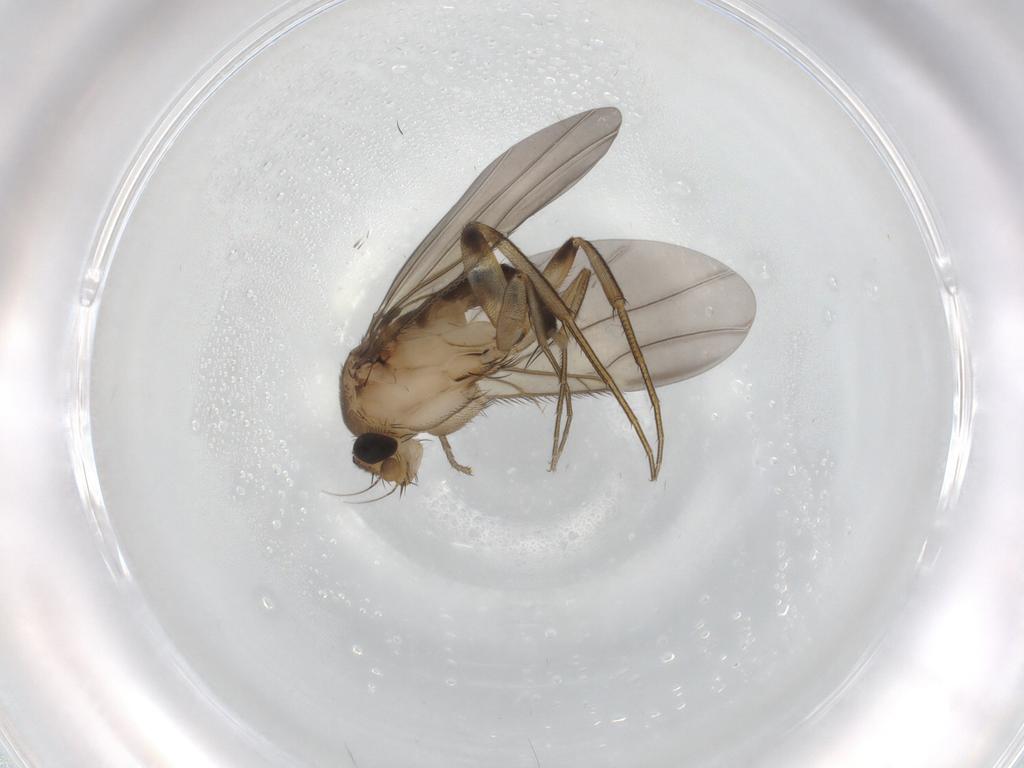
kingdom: Animalia
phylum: Arthropoda
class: Insecta
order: Diptera
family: Phoridae
